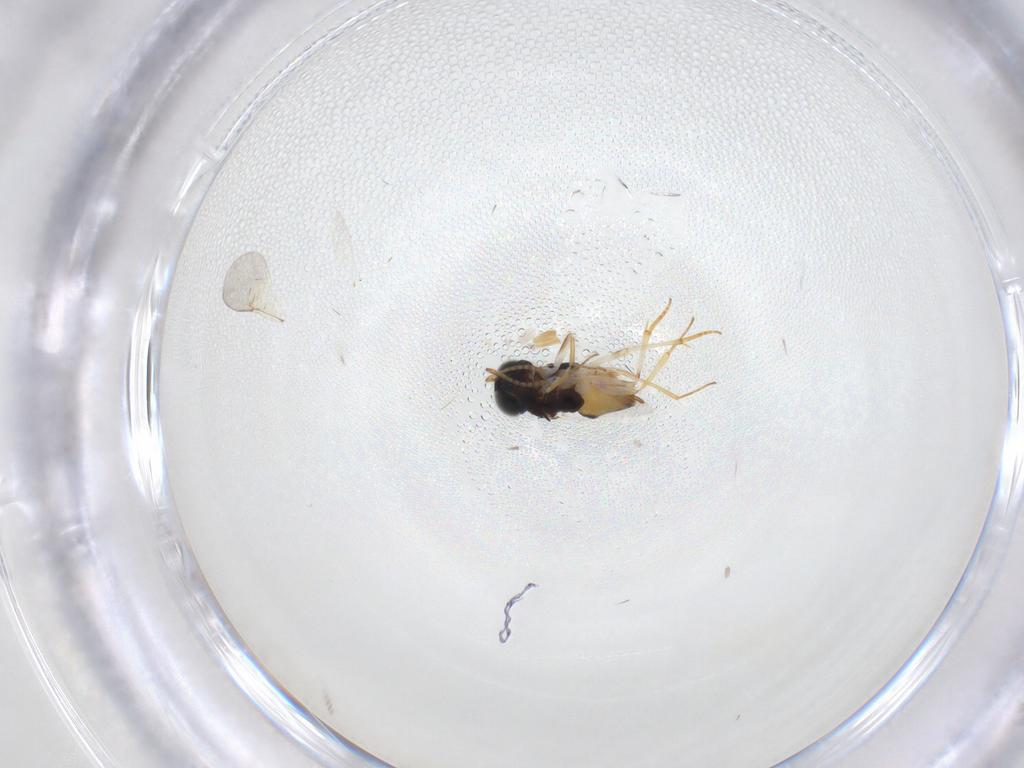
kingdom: Animalia
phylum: Arthropoda
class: Insecta
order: Hymenoptera
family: Encyrtidae
